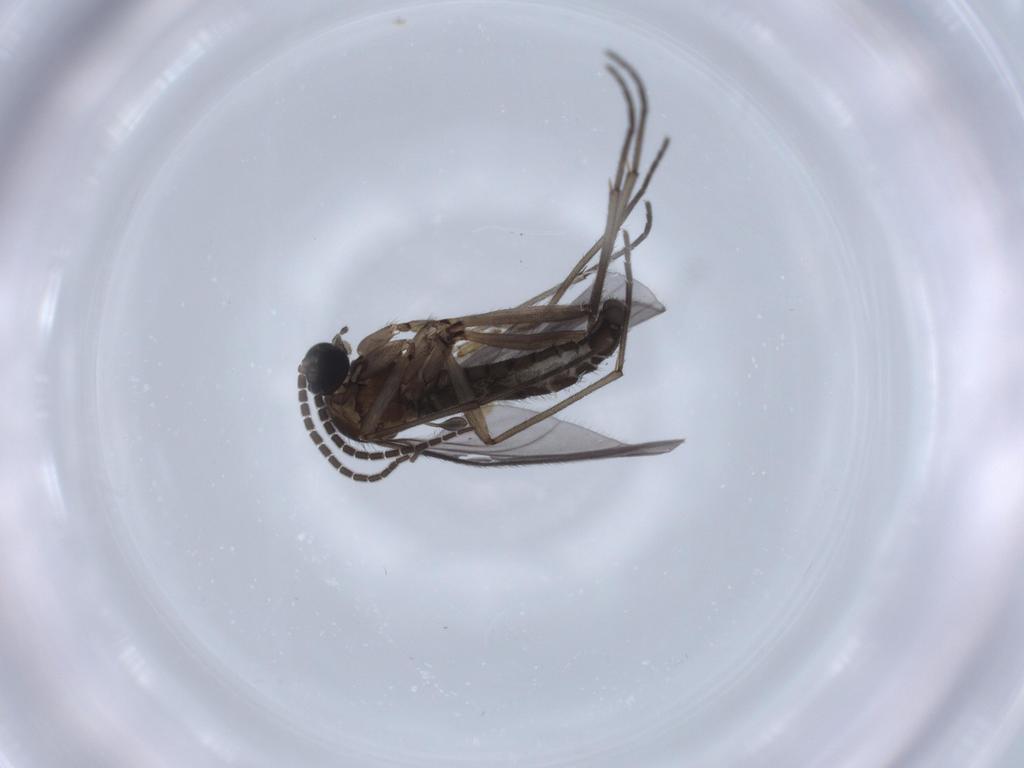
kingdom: Animalia
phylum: Arthropoda
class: Insecta
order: Diptera
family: Sciaridae
